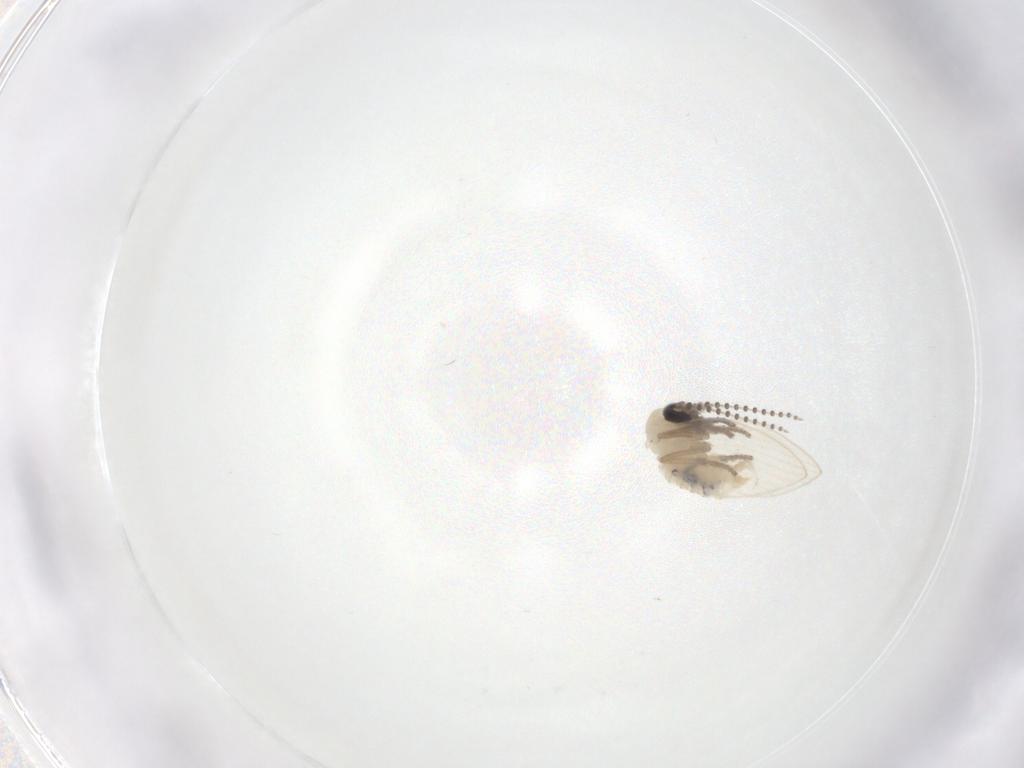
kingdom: Animalia
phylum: Arthropoda
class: Insecta
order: Diptera
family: Psychodidae
